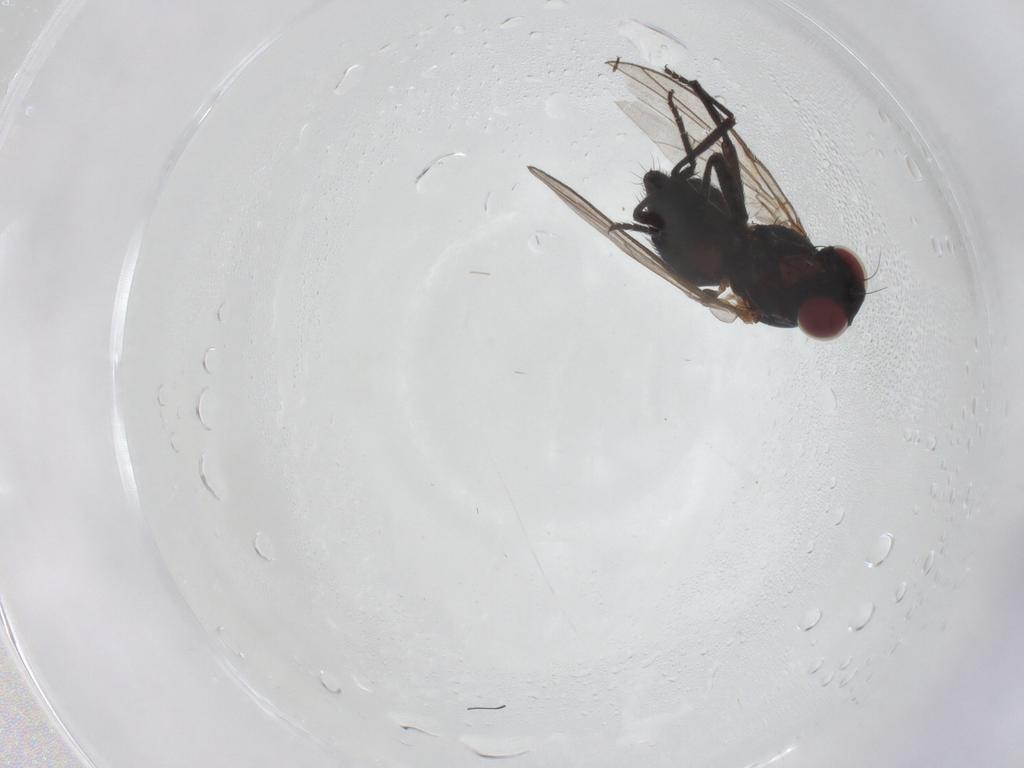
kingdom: Animalia
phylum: Arthropoda
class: Insecta
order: Diptera
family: Agromyzidae
